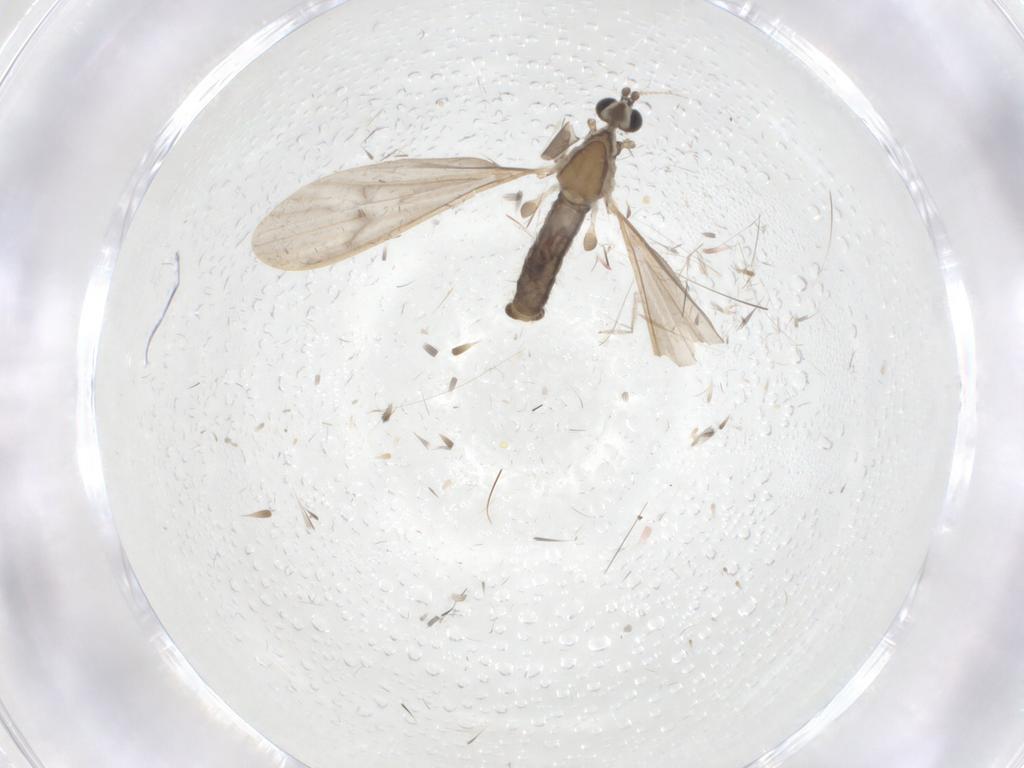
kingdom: Animalia
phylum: Arthropoda
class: Insecta
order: Diptera
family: Limoniidae
